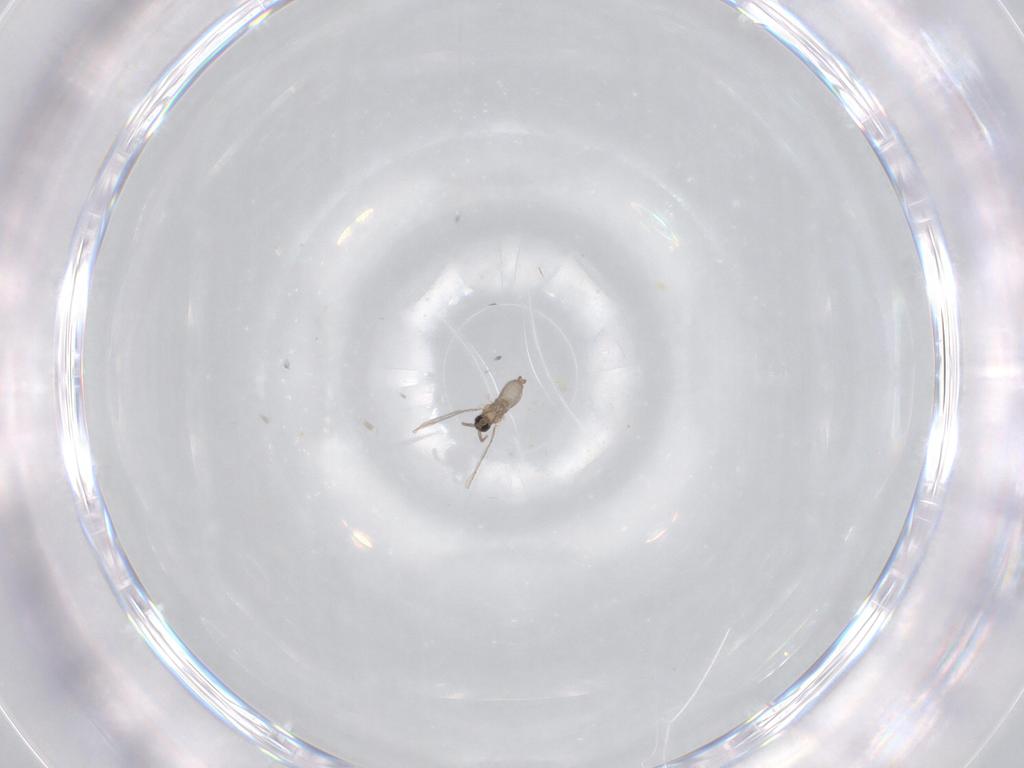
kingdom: Animalia
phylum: Arthropoda
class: Insecta
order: Diptera
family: Sphaeroceridae
